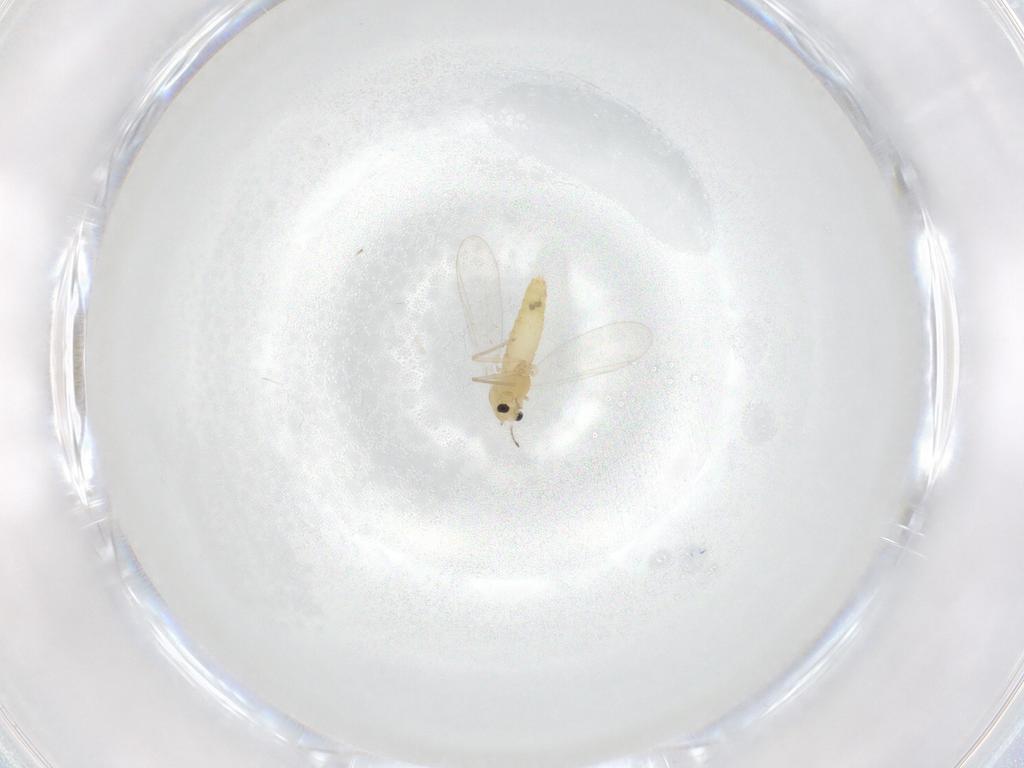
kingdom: Animalia
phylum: Arthropoda
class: Insecta
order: Diptera
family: Chironomidae
